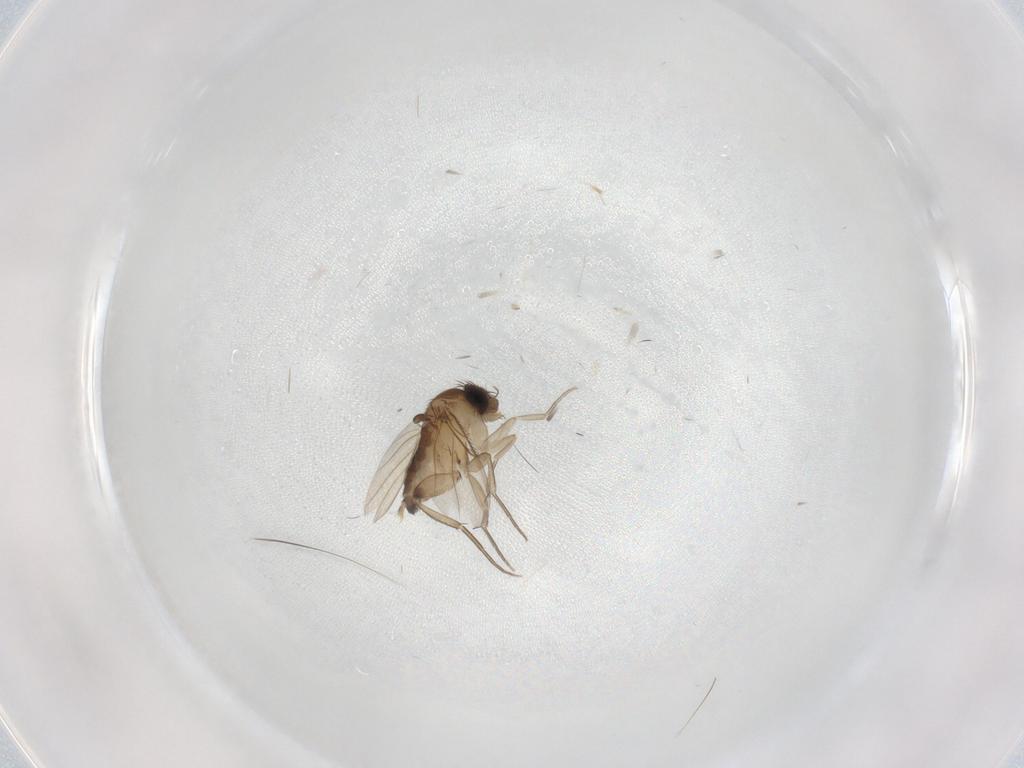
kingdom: Animalia
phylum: Arthropoda
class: Insecta
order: Diptera
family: Phoridae
